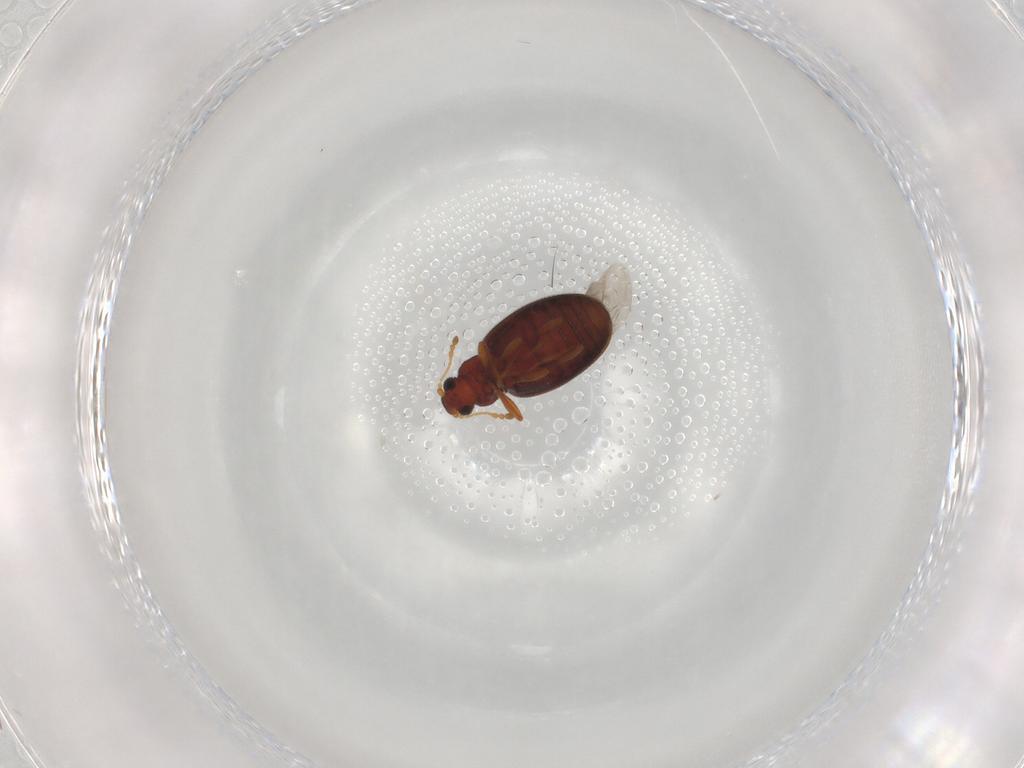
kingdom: Animalia
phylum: Arthropoda
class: Insecta
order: Coleoptera
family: Latridiidae
